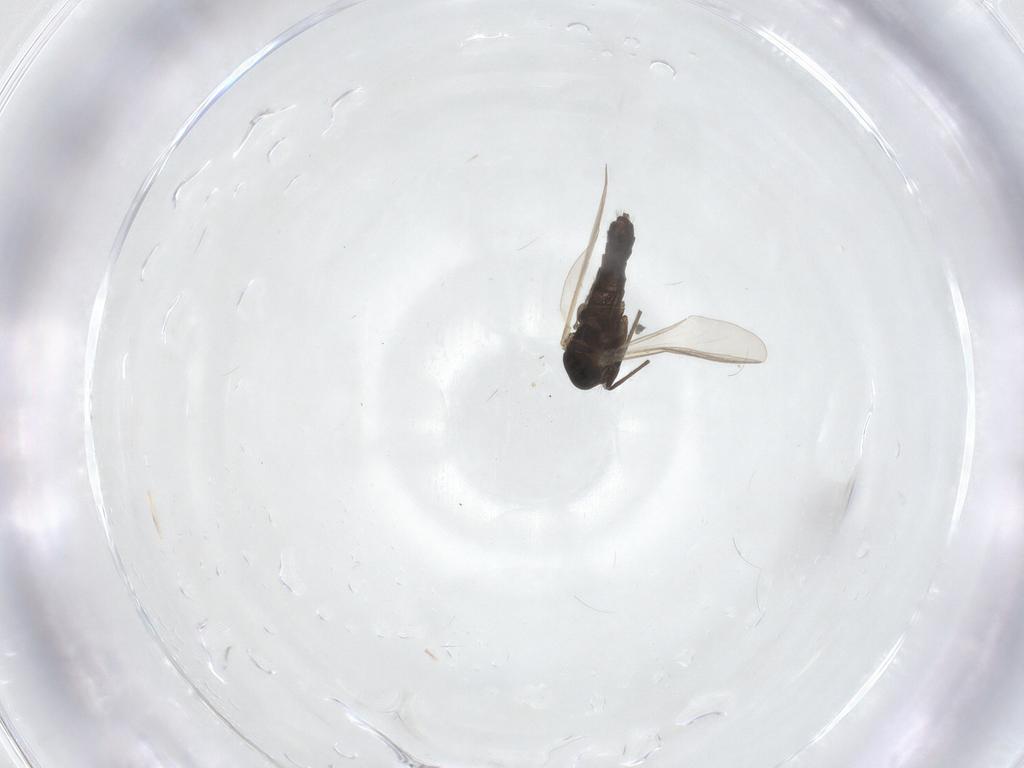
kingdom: Animalia
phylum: Arthropoda
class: Insecta
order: Diptera
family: Chironomidae
